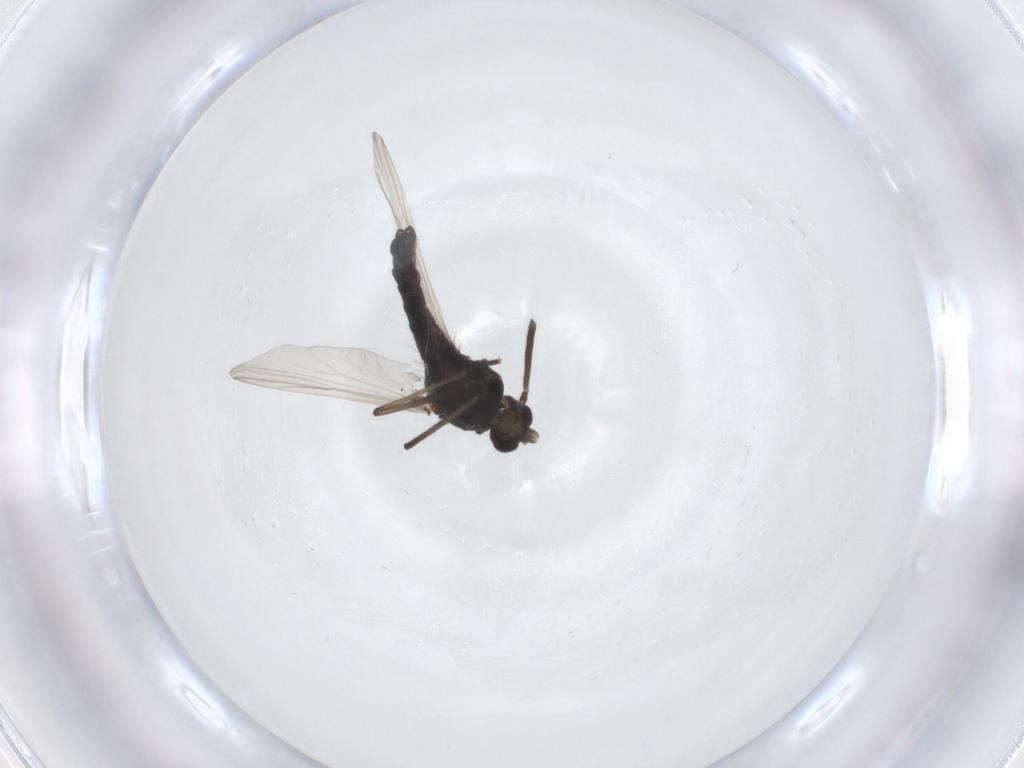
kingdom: Animalia
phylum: Arthropoda
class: Insecta
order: Diptera
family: Chironomidae
